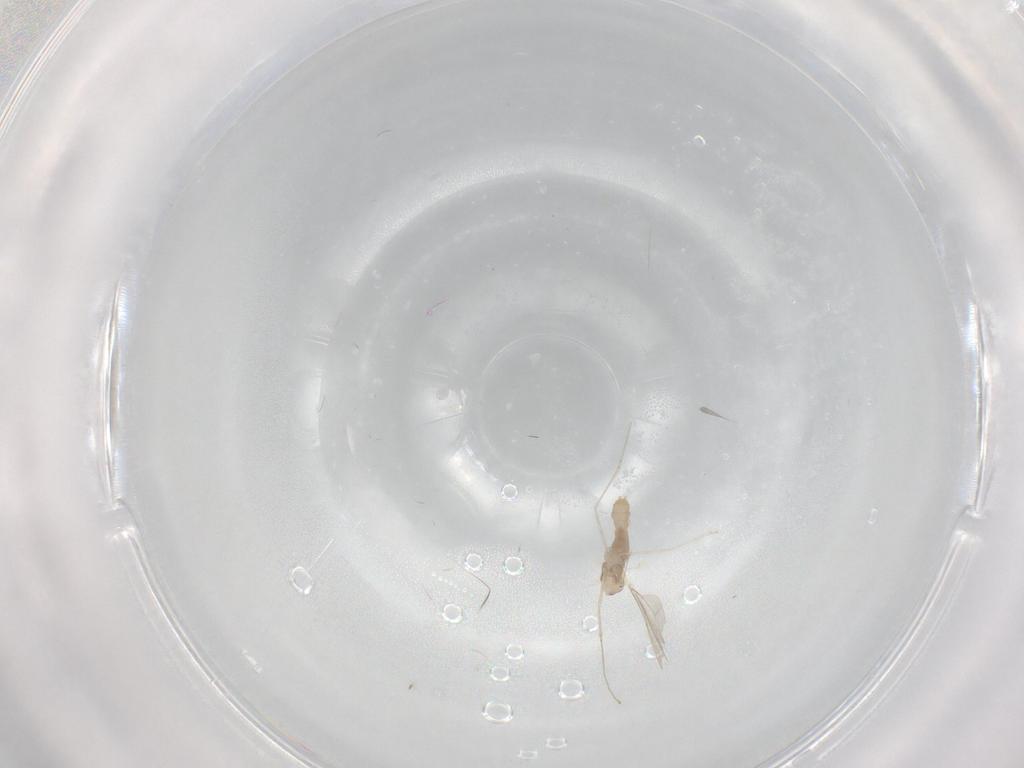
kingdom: Animalia
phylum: Arthropoda
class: Insecta
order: Diptera
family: Cecidomyiidae
